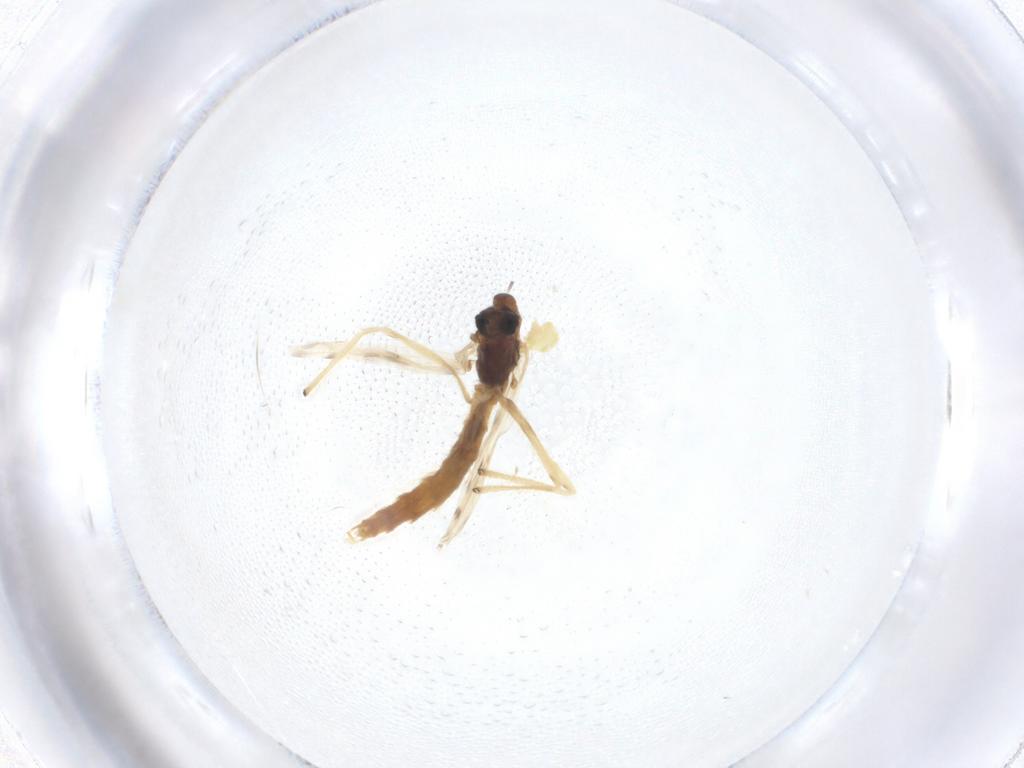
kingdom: Animalia
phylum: Arthropoda
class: Insecta
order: Diptera
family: Chironomidae
